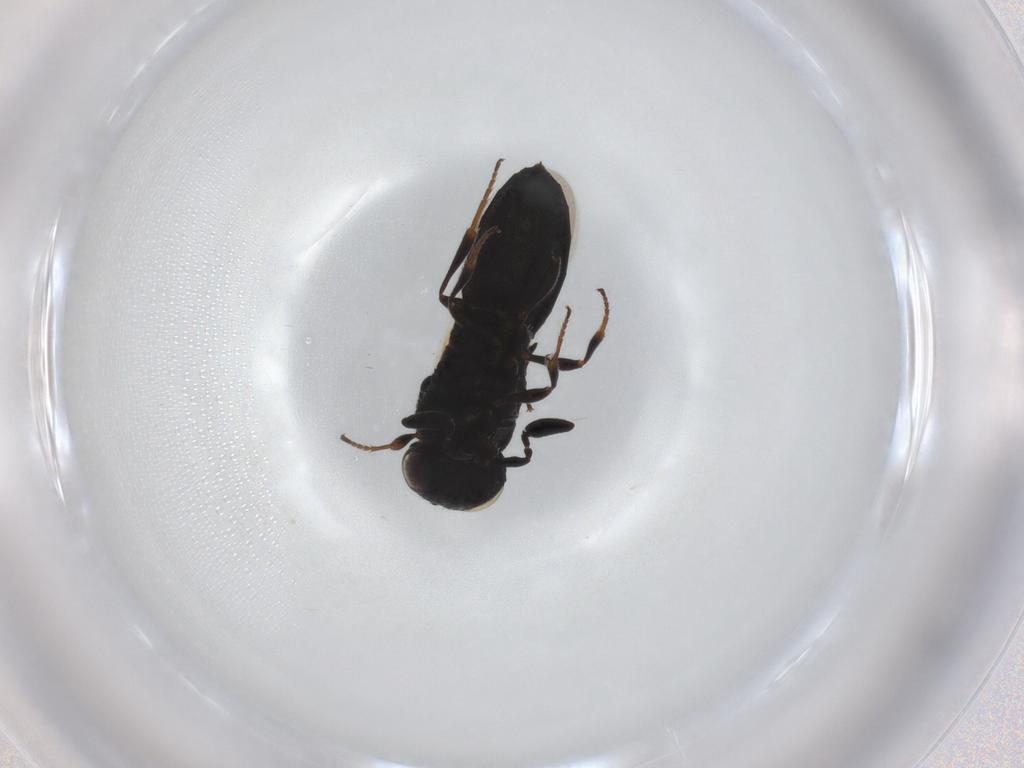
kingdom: Animalia
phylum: Arthropoda
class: Insecta
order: Hymenoptera
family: Scelionidae
